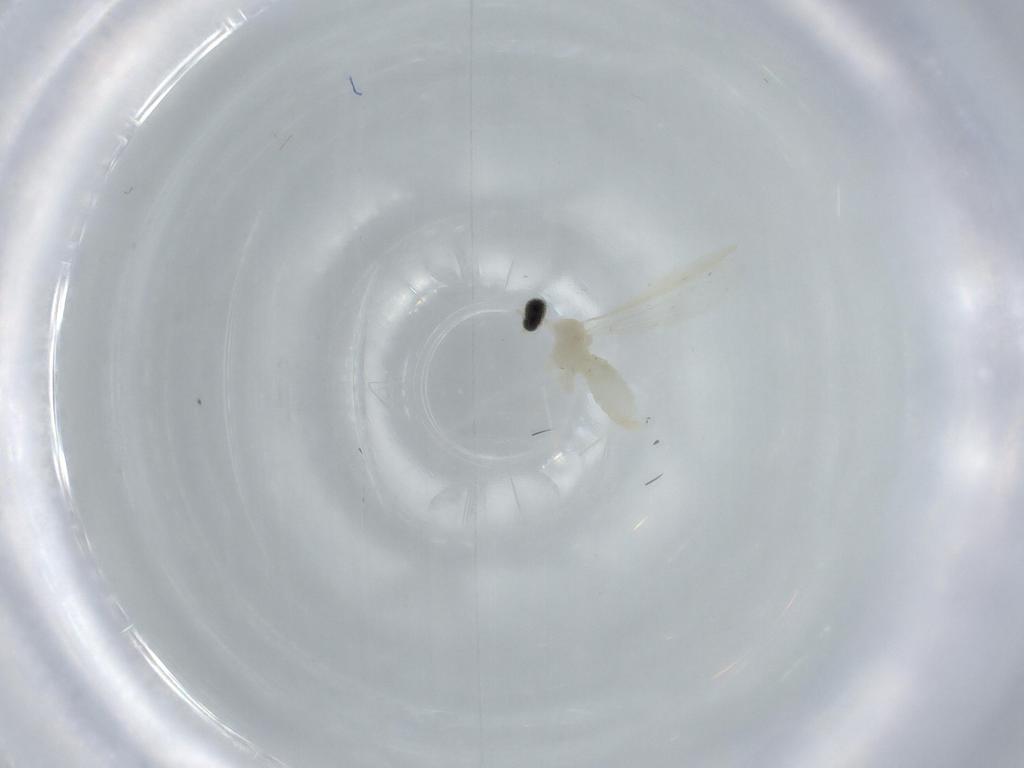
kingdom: Animalia
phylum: Arthropoda
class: Insecta
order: Diptera
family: Cecidomyiidae
